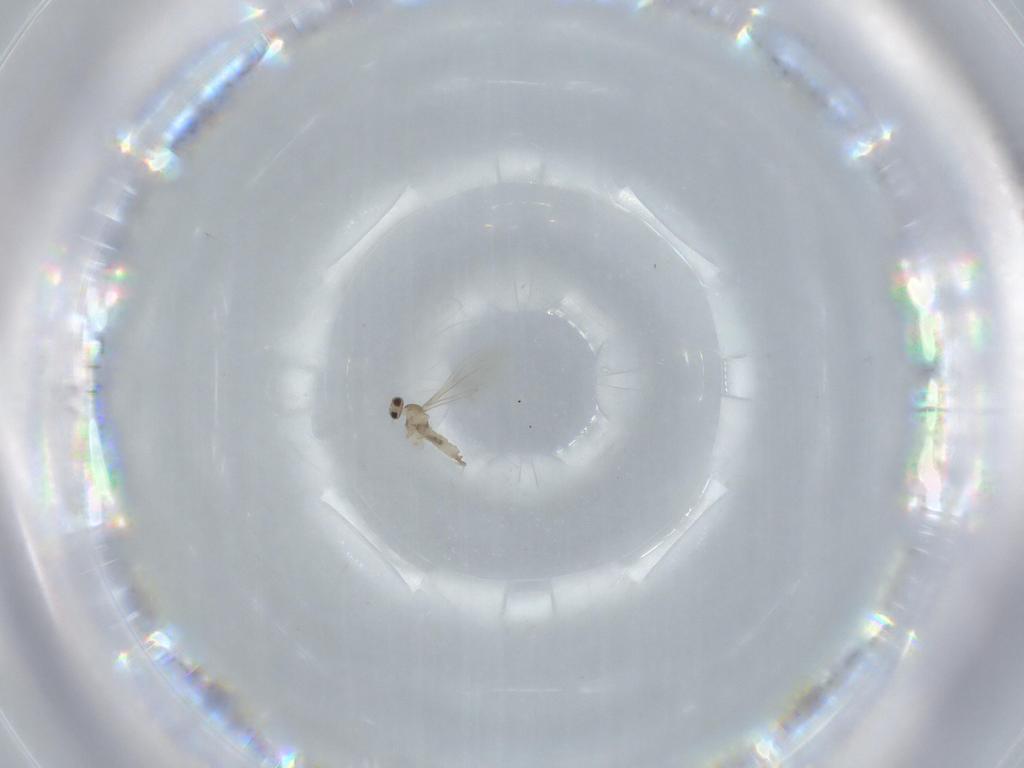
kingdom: Animalia
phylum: Arthropoda
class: Insecta
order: Diptera
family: Cecidomyiidae
